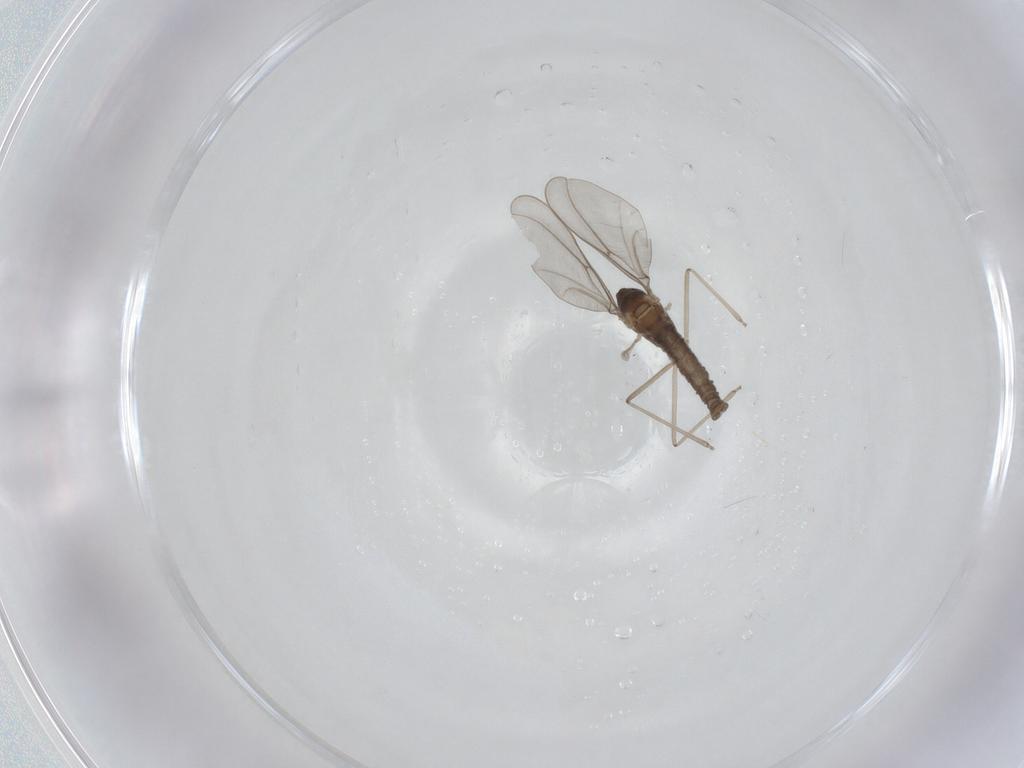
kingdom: Animalia
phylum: Arthropoda
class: Insecta
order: Diptera
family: Cecidomyiidae
